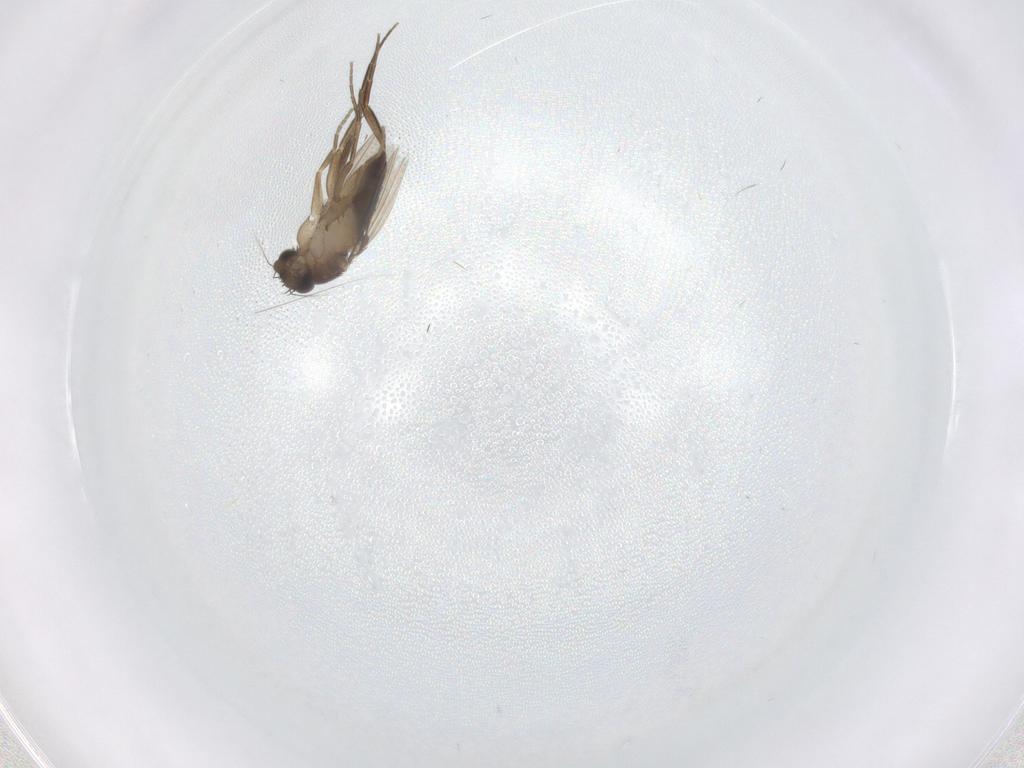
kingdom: Animalia
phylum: Arthropoda
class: Insecta
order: Diptera
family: Phoridae
